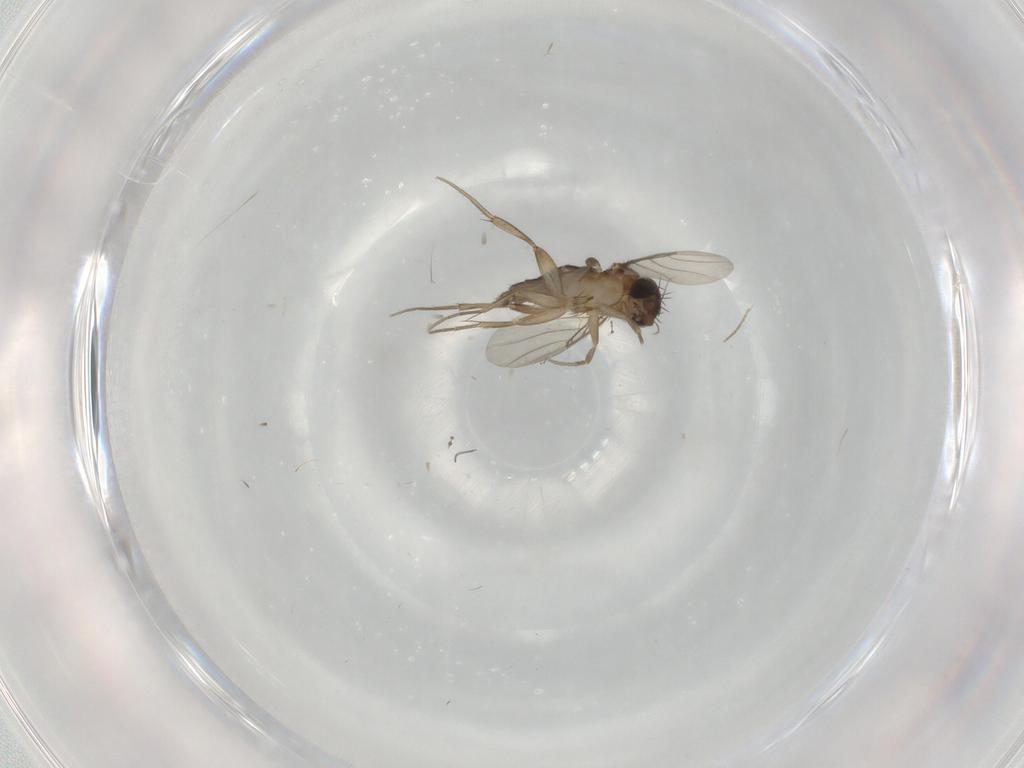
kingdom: Animalia
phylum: Arthropoda
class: Insecta
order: Diptera
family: Phoridae
